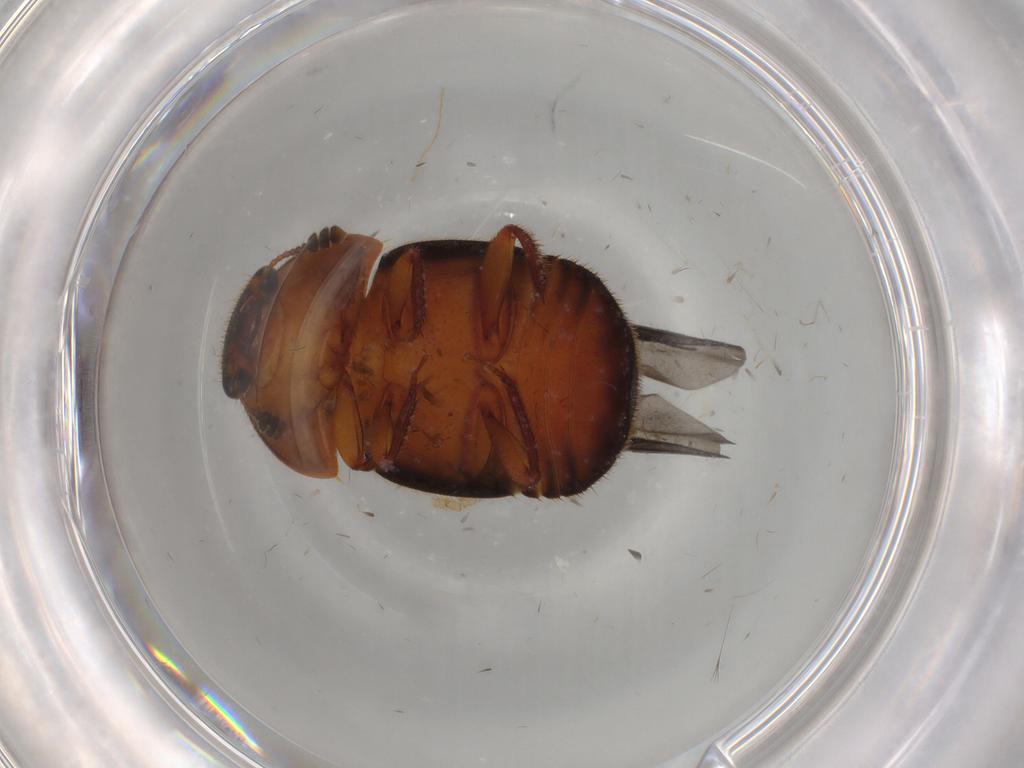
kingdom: Animalia
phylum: Arthropoda
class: Insecta
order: Coleoptera
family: Nitidulidae
